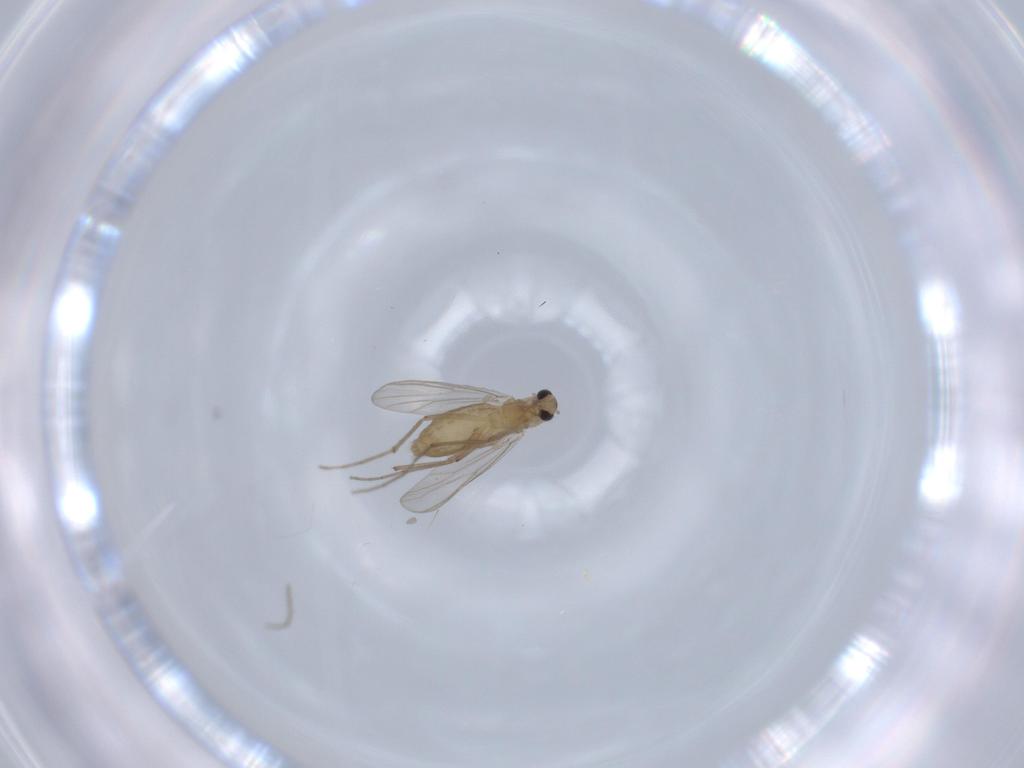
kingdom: Animalia
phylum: Arthropoda
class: Insecta
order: Diptera
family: Chironomidae
